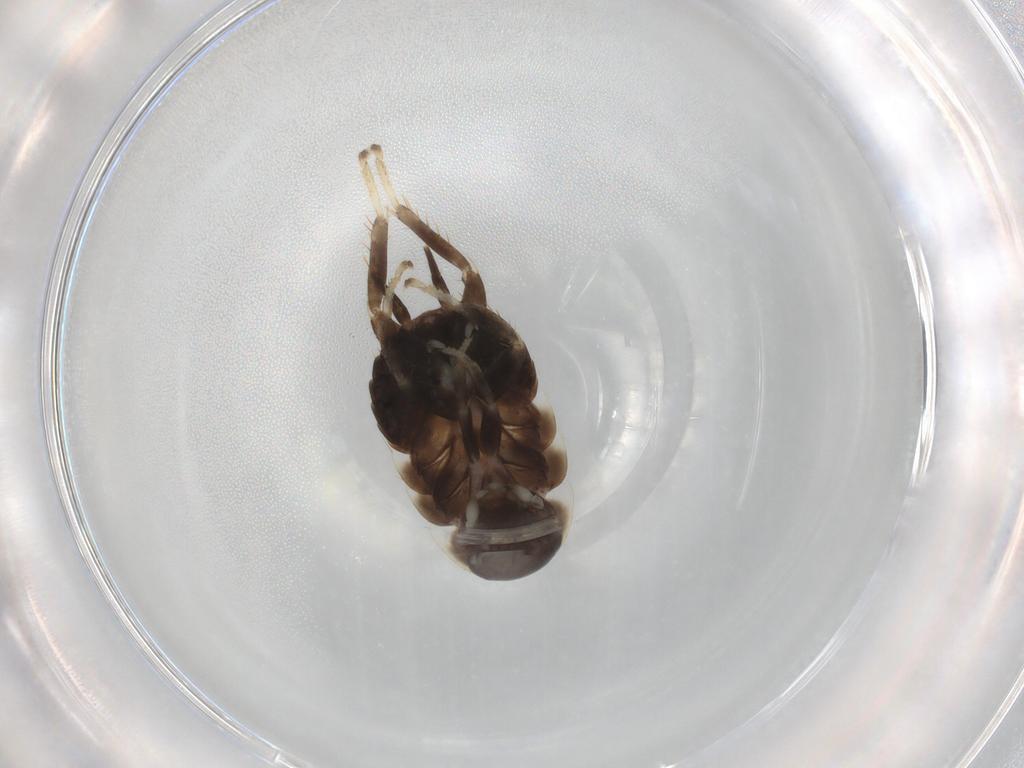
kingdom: Animalia
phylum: Arthropoda
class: Insecta
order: Blattodea
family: Blaberidae
